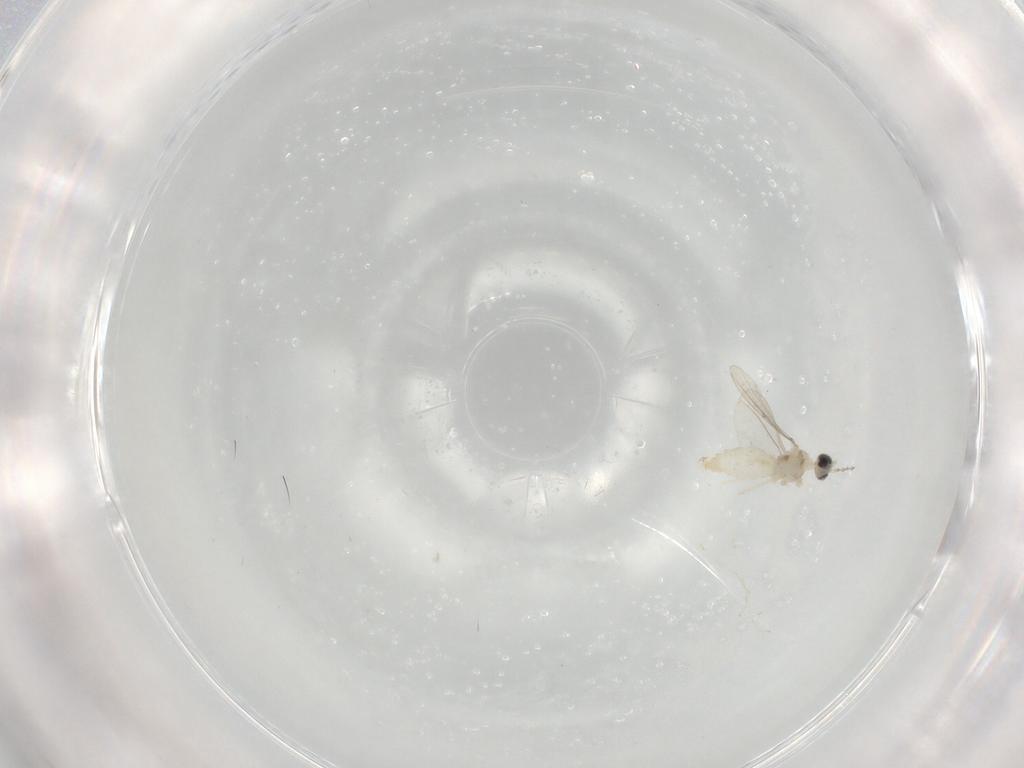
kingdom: Animalia
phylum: Arthropoda
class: Insecta
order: Diptera
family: Cecidomyiidae
